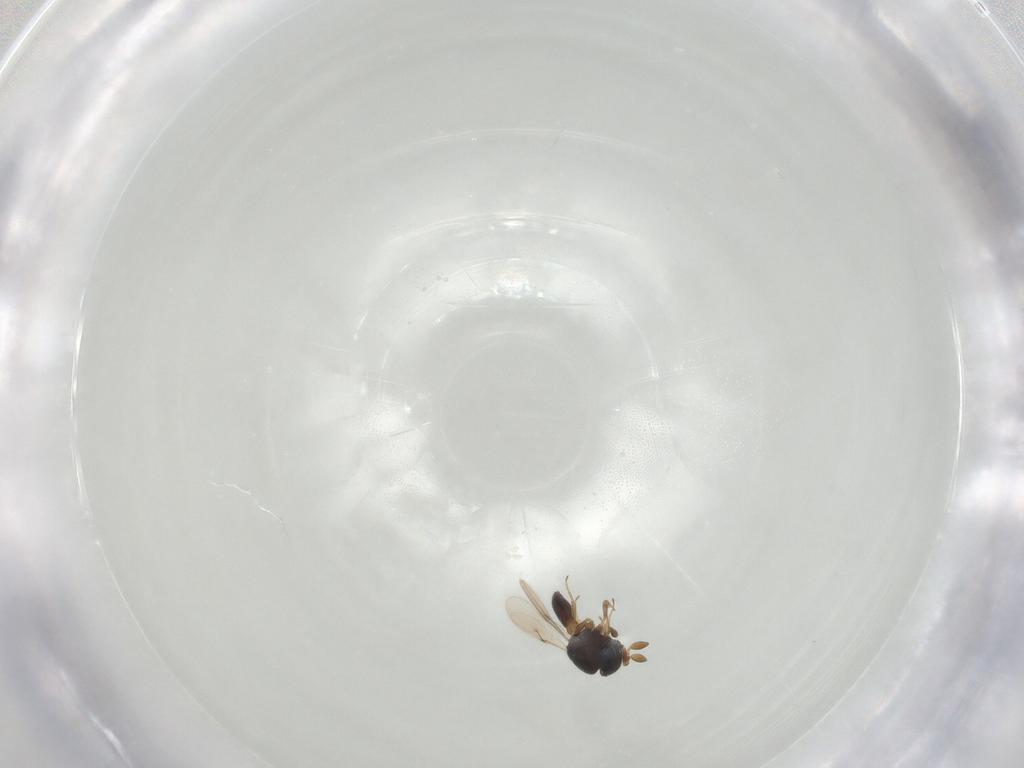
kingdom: Animalia
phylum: Arthropoda
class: Insecta
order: Hymenoptera
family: Scelionidae
